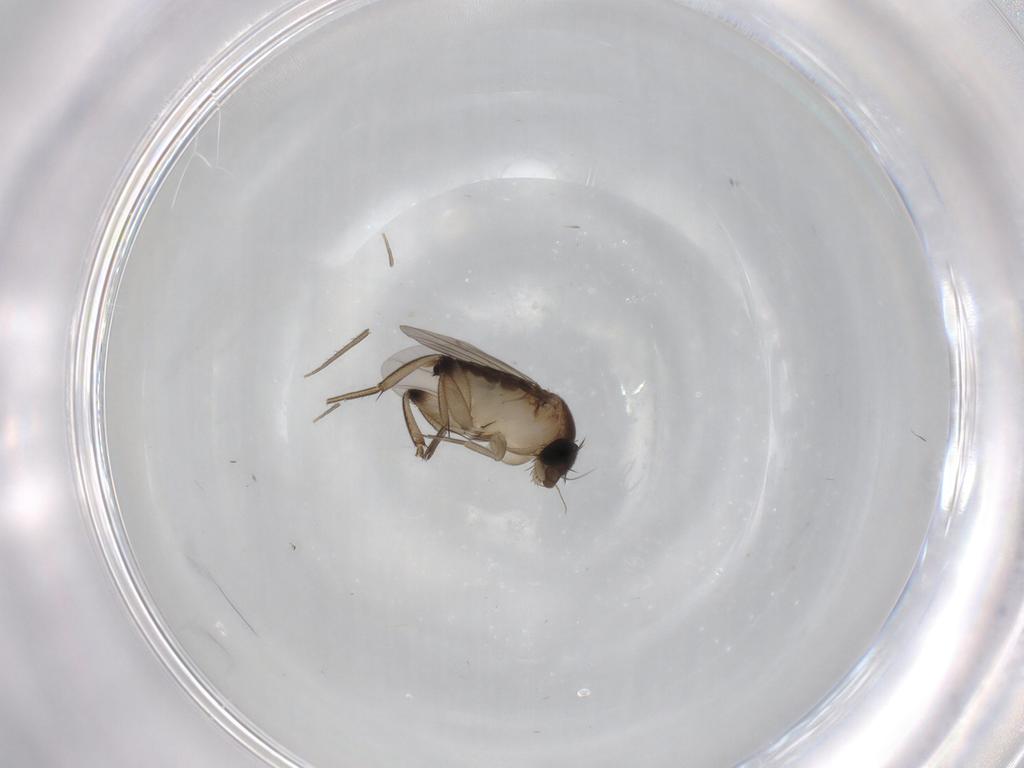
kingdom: Animalia
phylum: Arthropoda
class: Insecta
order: Diptera
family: Phoridae
